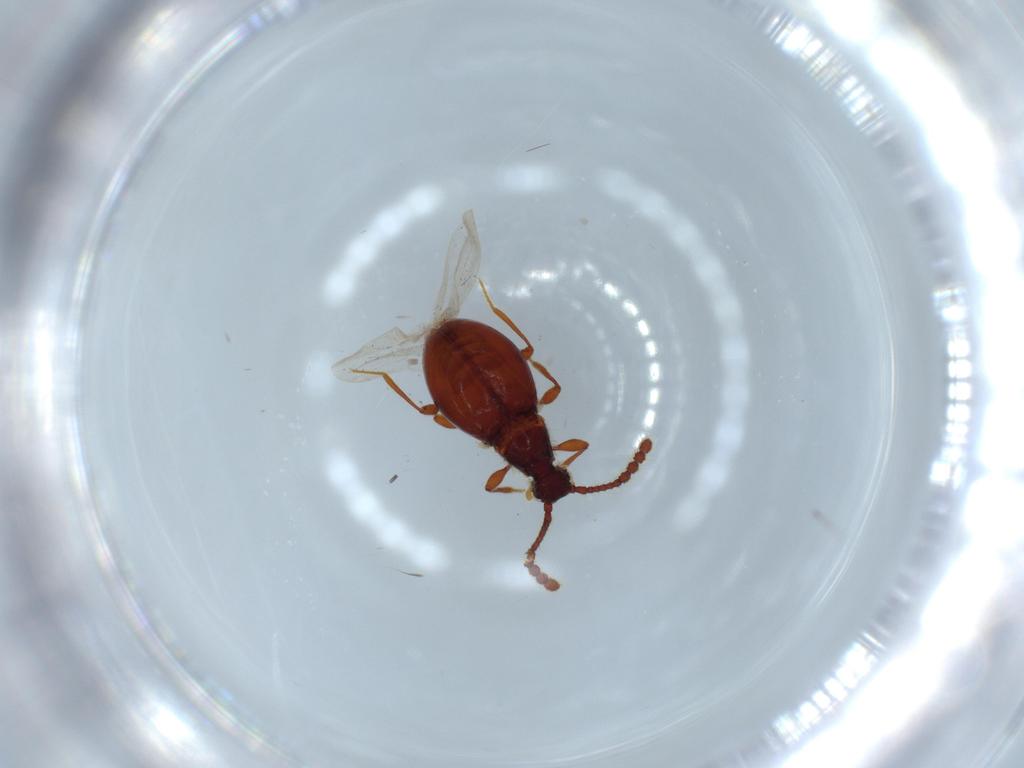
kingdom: Animalia
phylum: Arthropoda
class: Insecta
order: Coleoptera
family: Staphylinidae
